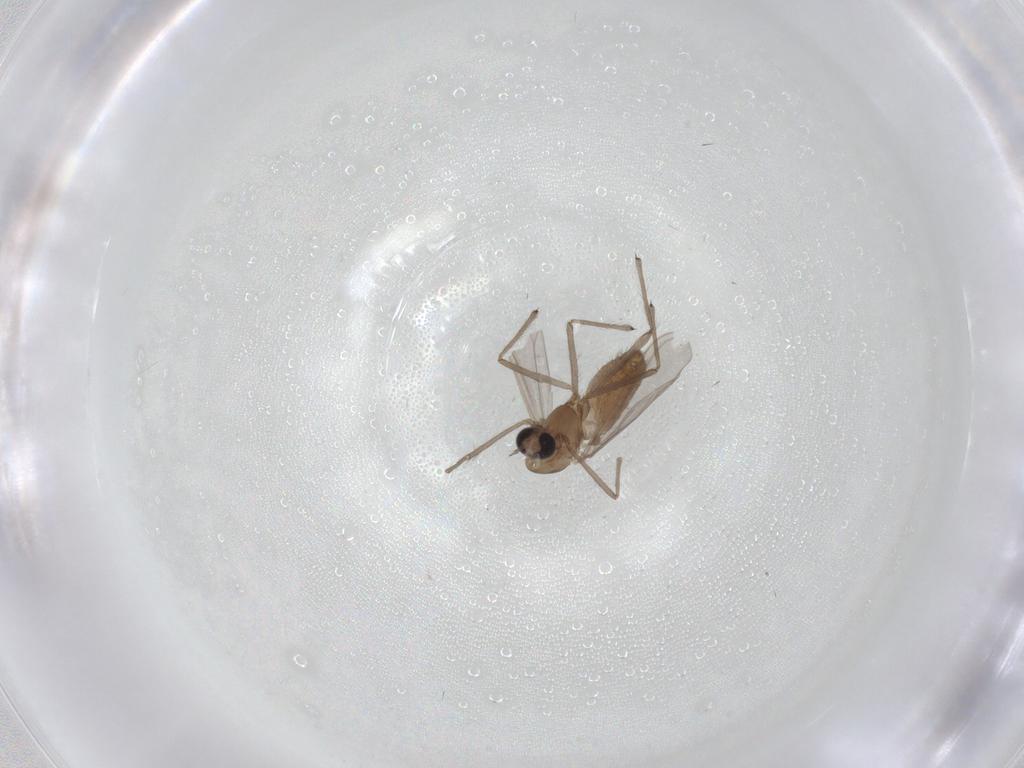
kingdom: Animalia
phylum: Arthropoda
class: Insecta
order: Diptera
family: Chironomidae
